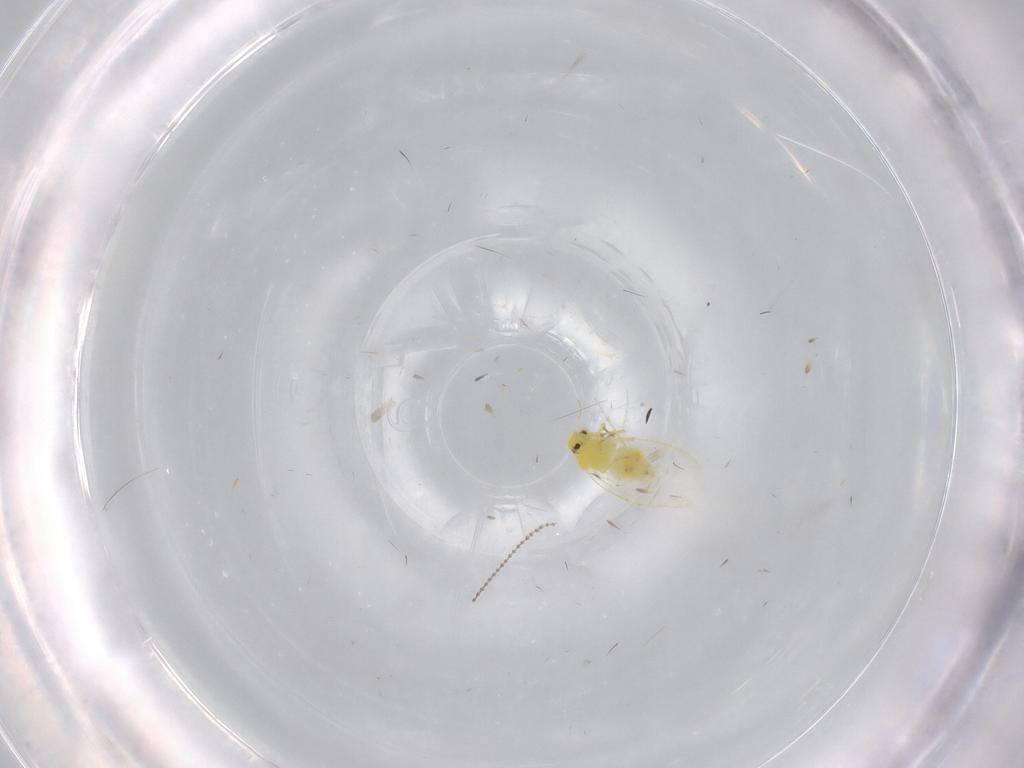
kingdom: Animalia
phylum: Arthropoda
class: Insecta
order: Hemiptera
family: Aleyrodidae
